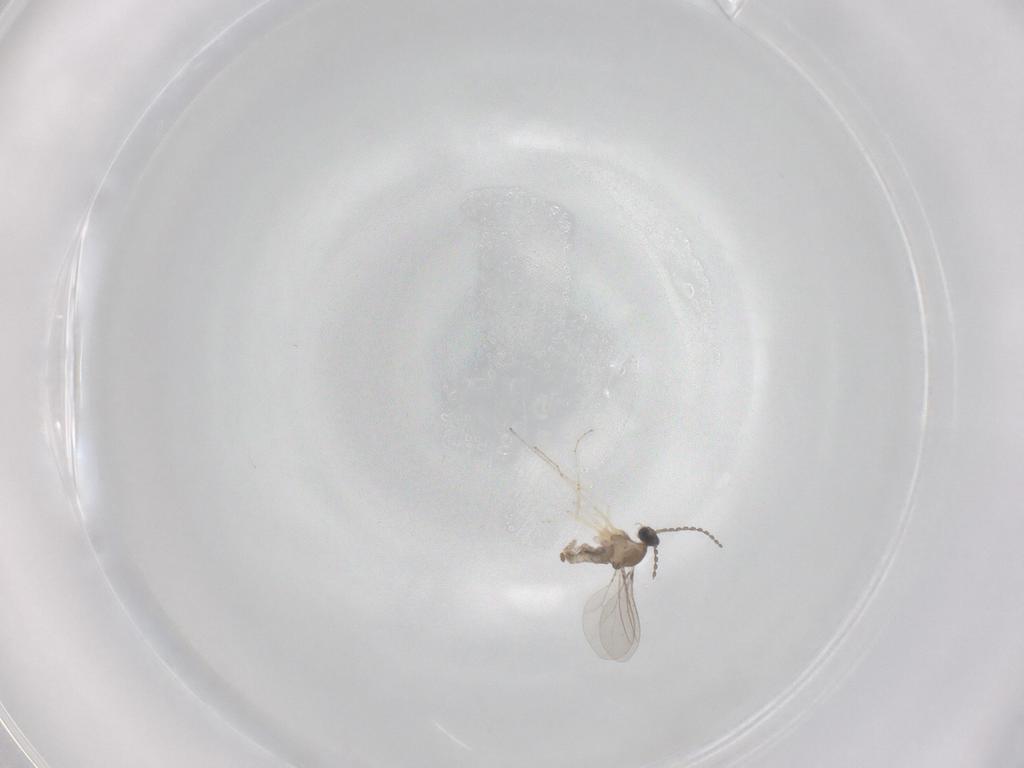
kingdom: Animalia
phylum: Arthropoda
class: Insecta
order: Diptera
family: Cecidomyiidae
